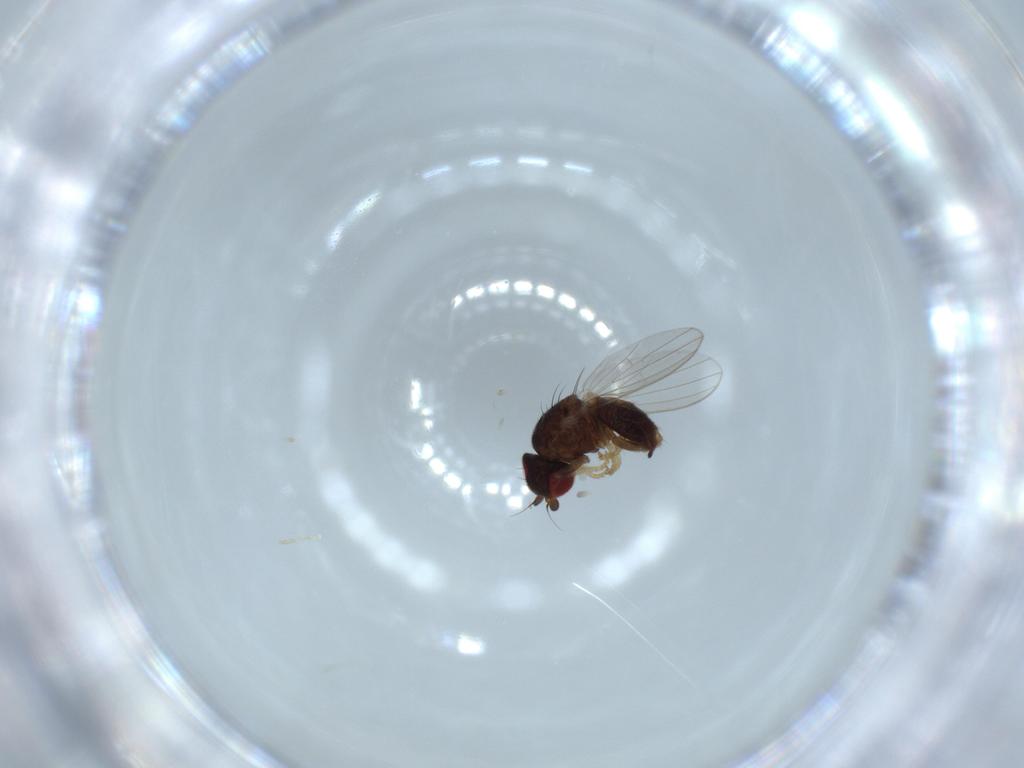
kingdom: Animalia
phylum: Arthropoda
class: Insecta
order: Diptera
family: Chamaemyiidae
